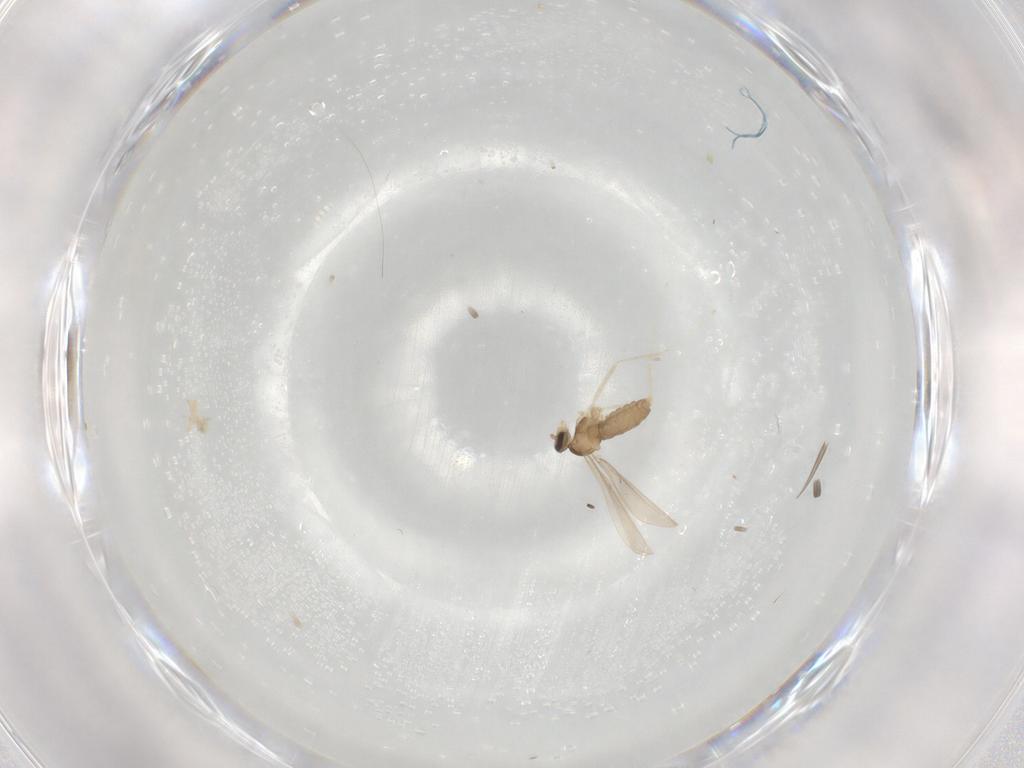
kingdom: Animalia
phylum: Arthropoda
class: Insecta
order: Diptera
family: Cecidomyiidae
